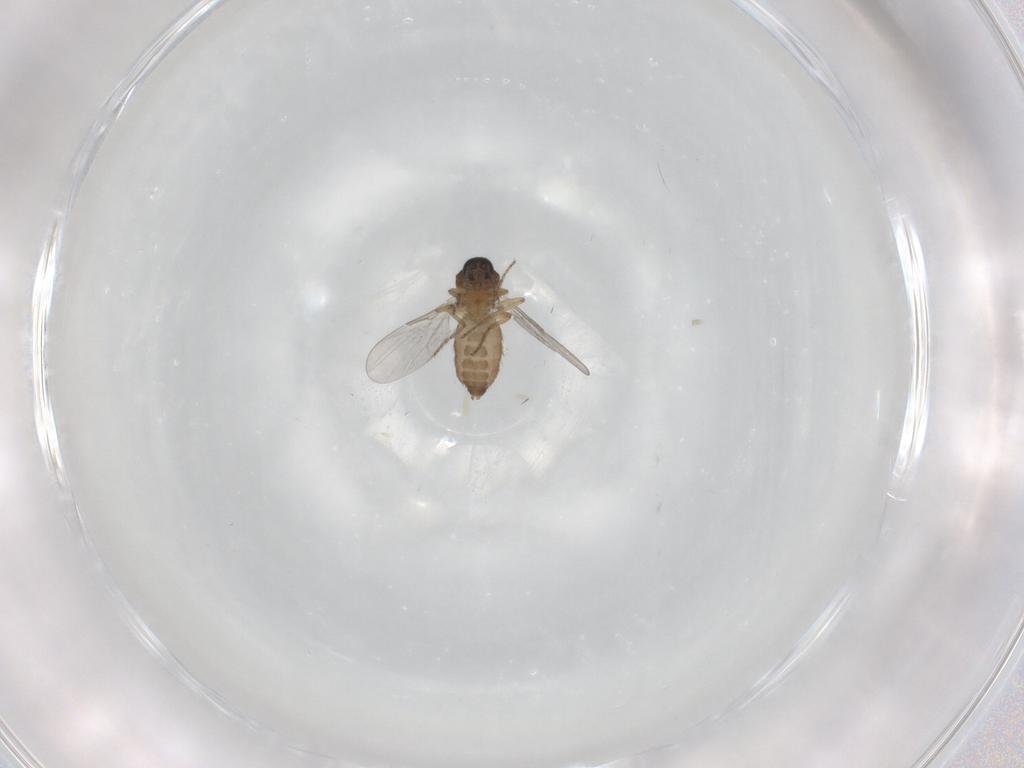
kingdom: Animalia
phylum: Arthropoda
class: Insecta
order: Diptera
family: Ceratopogonidae
